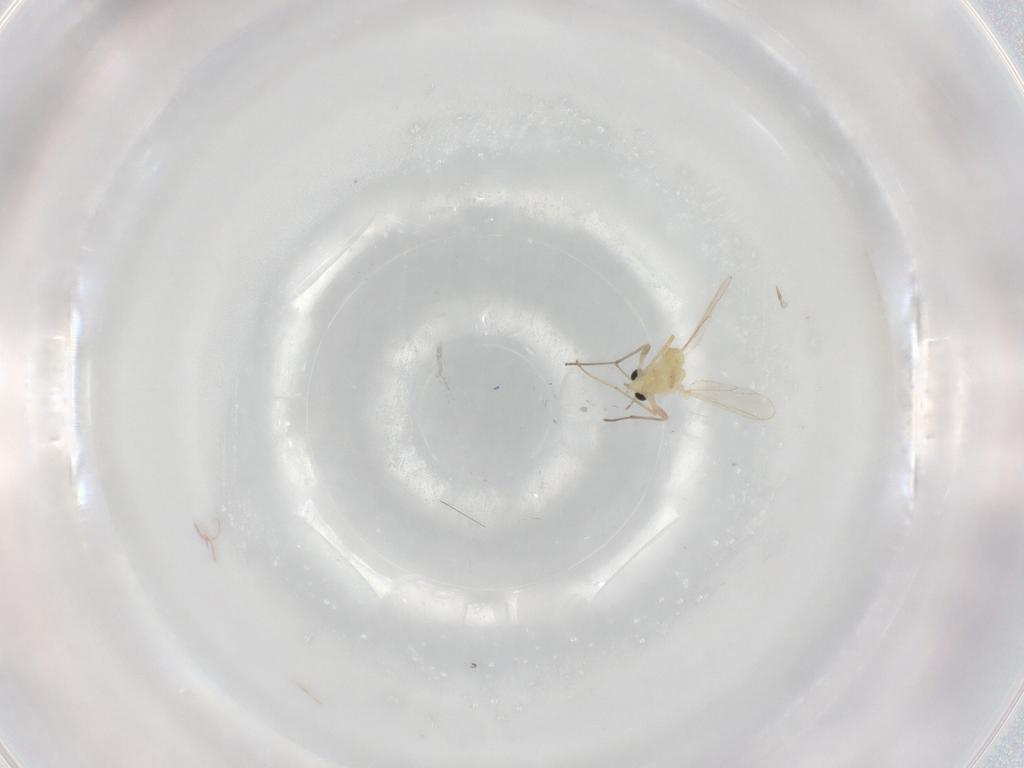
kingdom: Animalia
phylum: Arthropoda
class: Insecta
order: Diptera
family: Chironomidae
